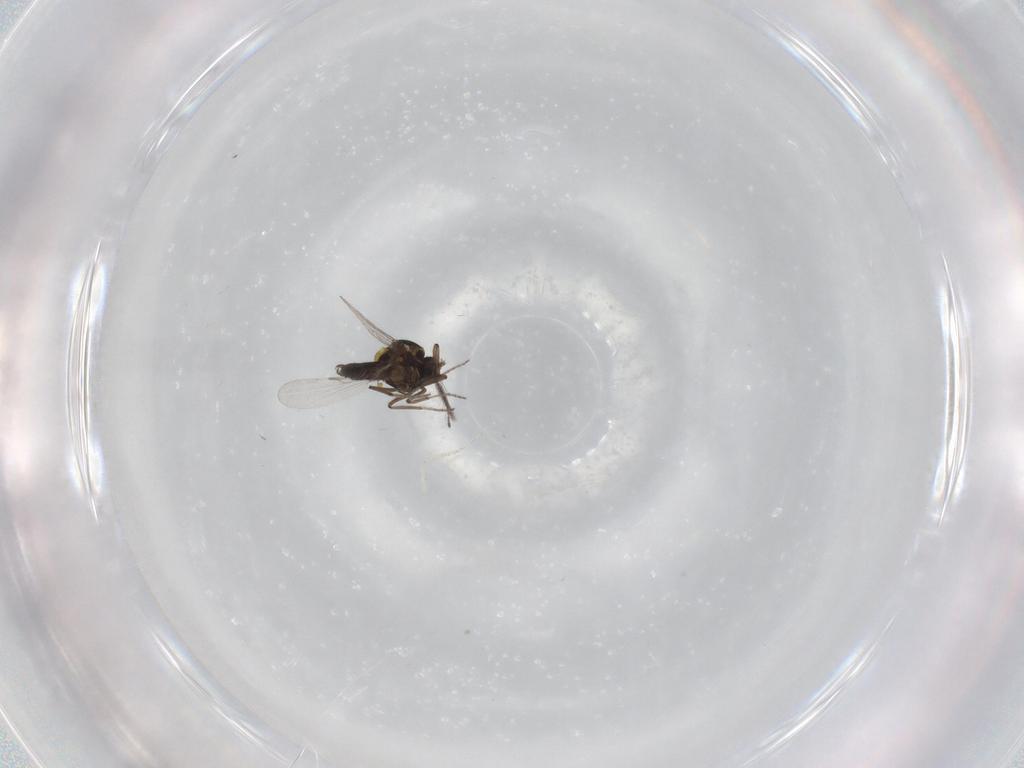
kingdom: Animalia
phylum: Arthropoda
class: Insecta
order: Diptera
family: Ceratopogonidae
